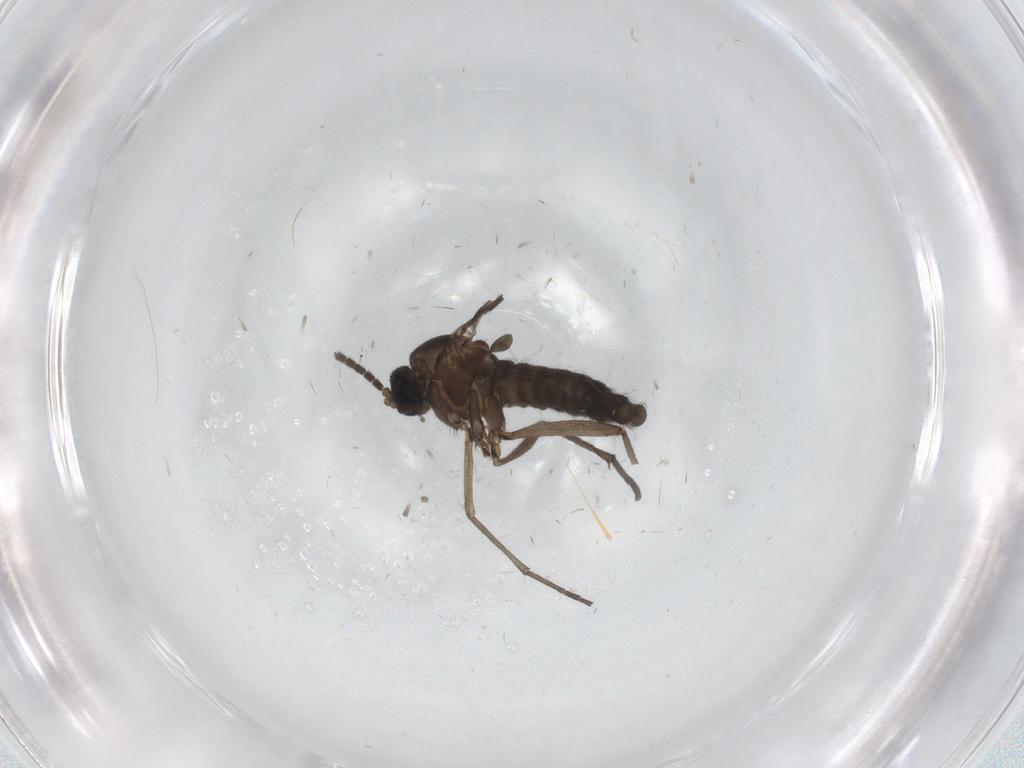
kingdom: Animalia
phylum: Arthropoda
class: Insecta
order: Diptera
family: Sciaridae
